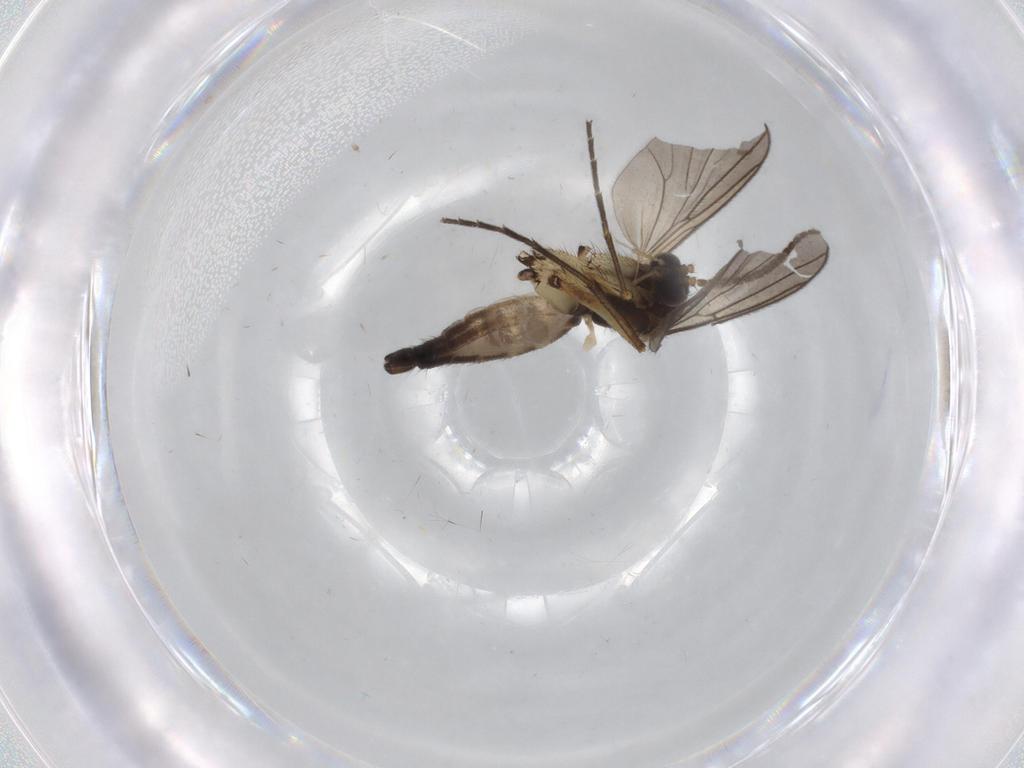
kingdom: Animalia
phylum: Arthropoda
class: Insecta
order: Diptera
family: Mycetophilidae
